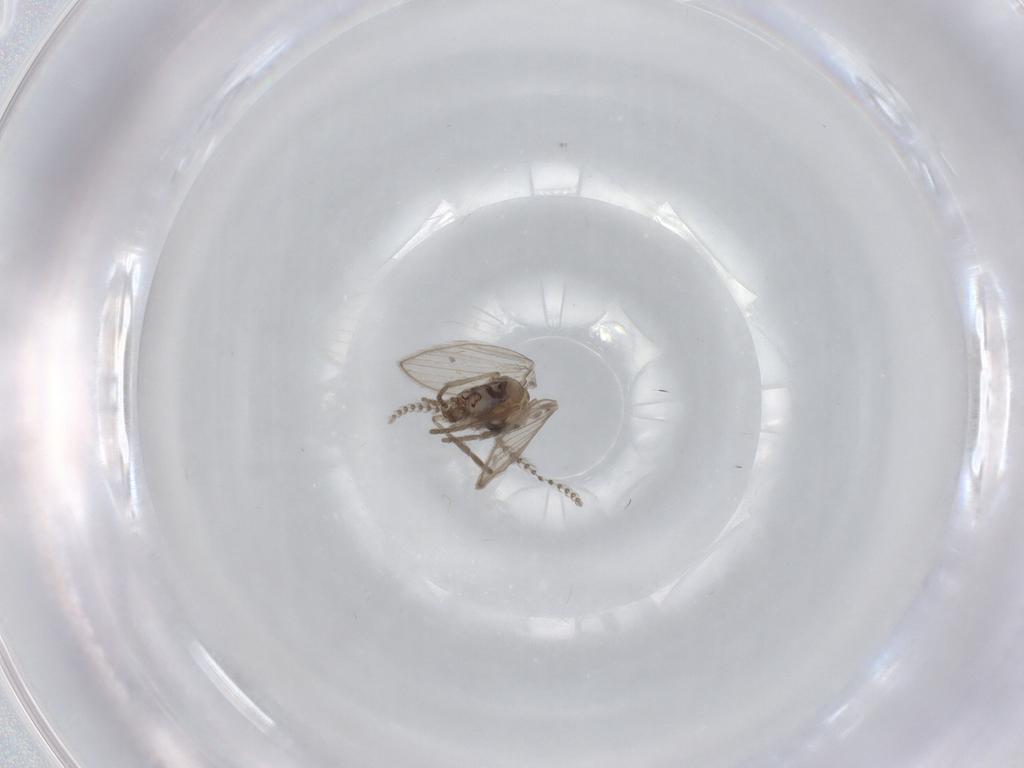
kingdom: Animalia
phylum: Arthropoda
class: Insecta
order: Diptera
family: Psychodidae
